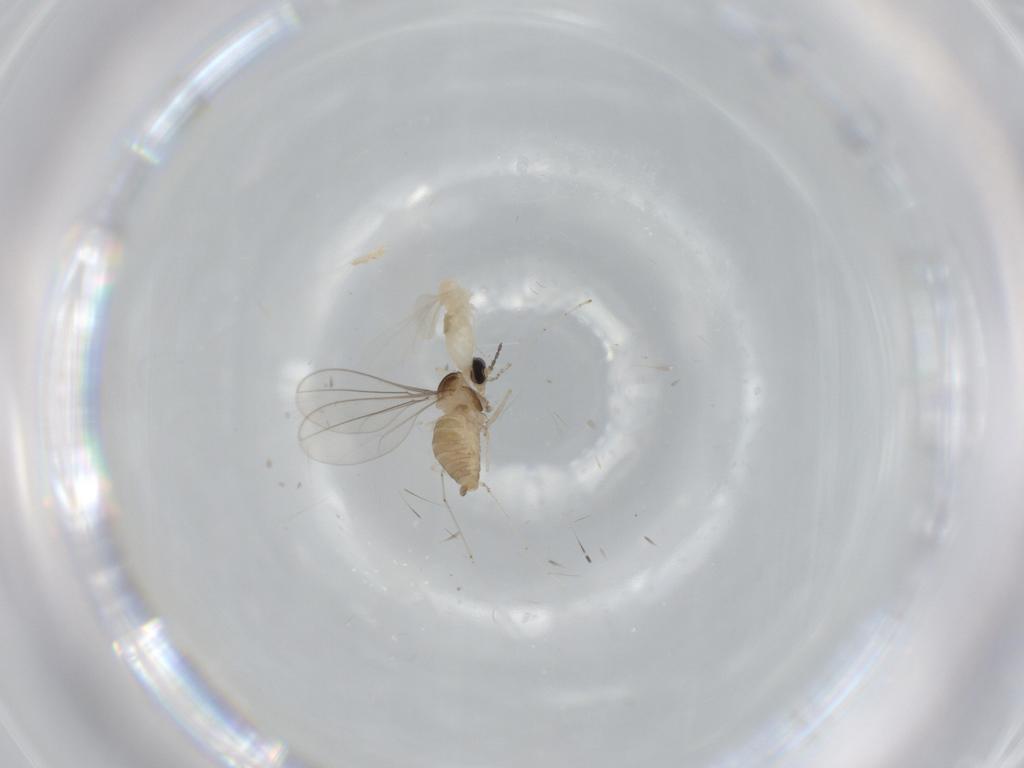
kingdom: Animalia
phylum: Arthropoda
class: Insecta
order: Diptera
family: Cecidomyiidae
